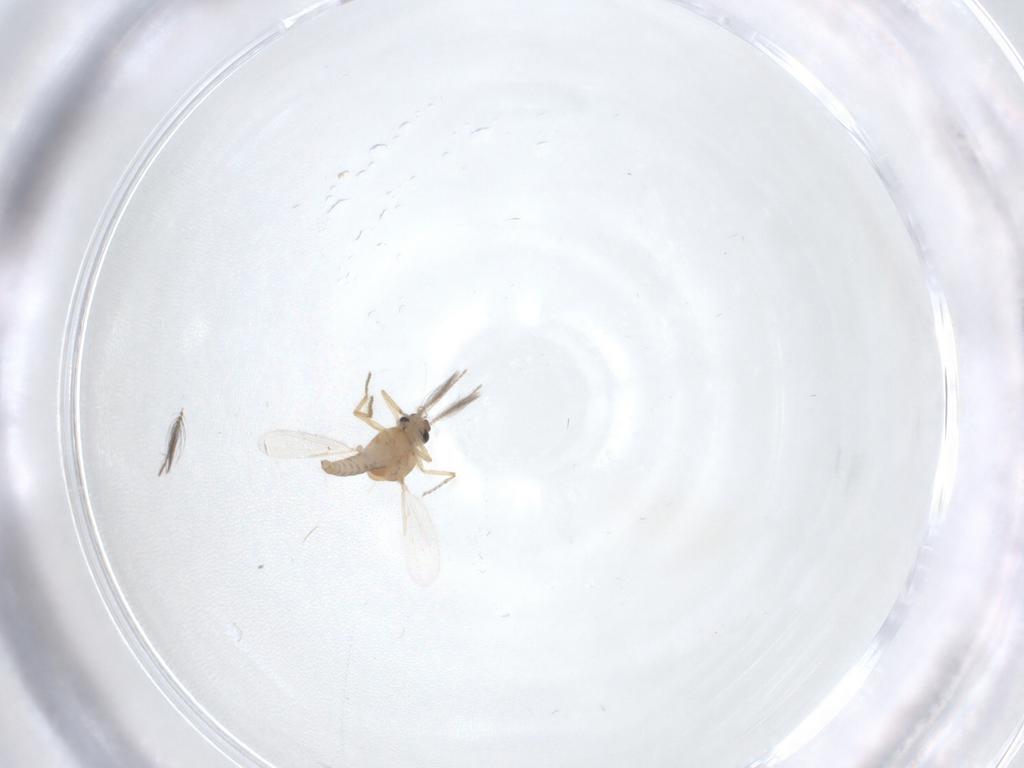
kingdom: Animalia
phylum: Arthropoda
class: Insecta
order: Diptera
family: Ceratopogonidae
